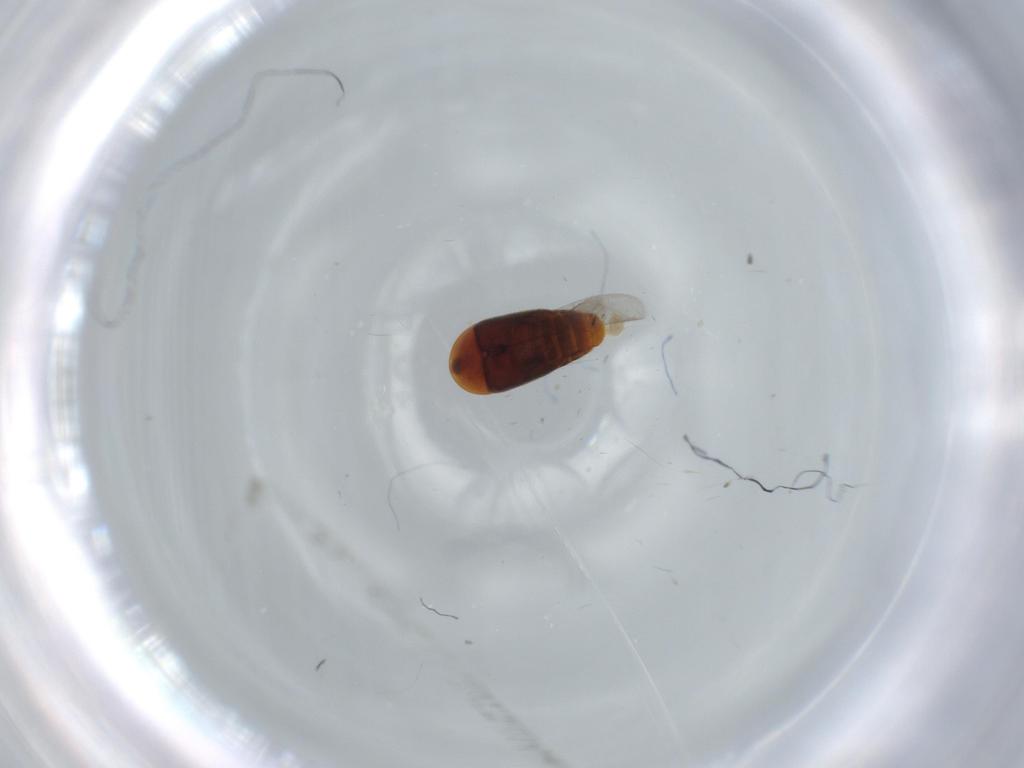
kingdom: Animalia
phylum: Arthropoda
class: Insecta
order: Coleoptera
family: Corylophidae
